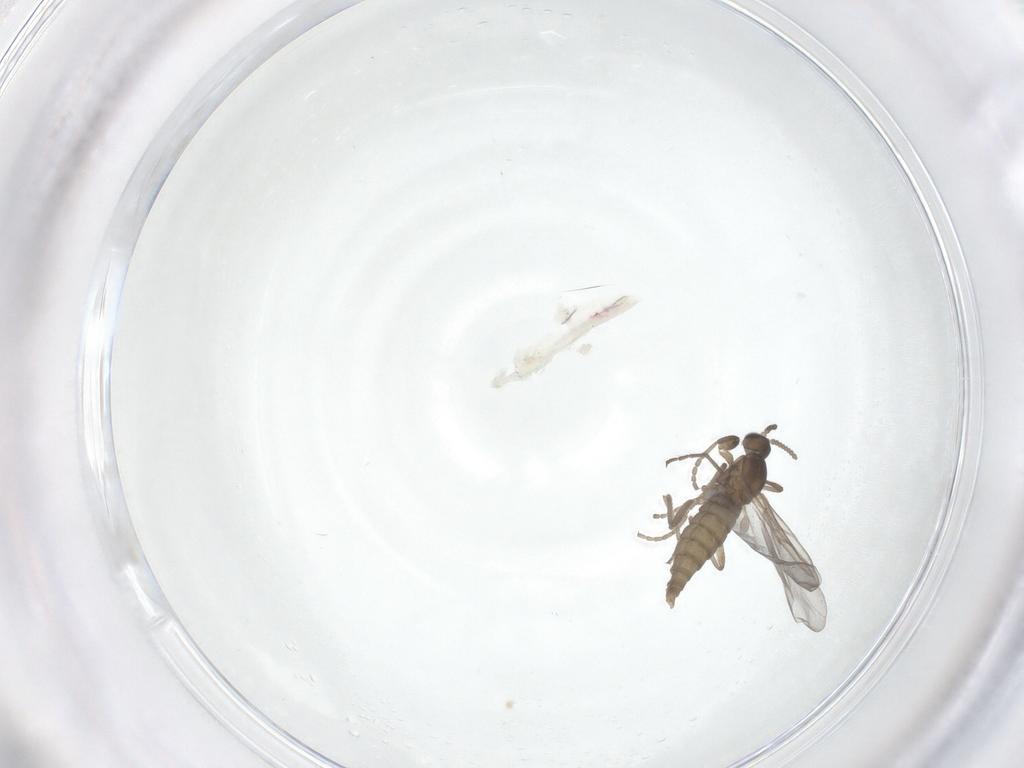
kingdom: Animalia
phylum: Arthropoda
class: Insecta
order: Diptera
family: Cecidomyiidae
